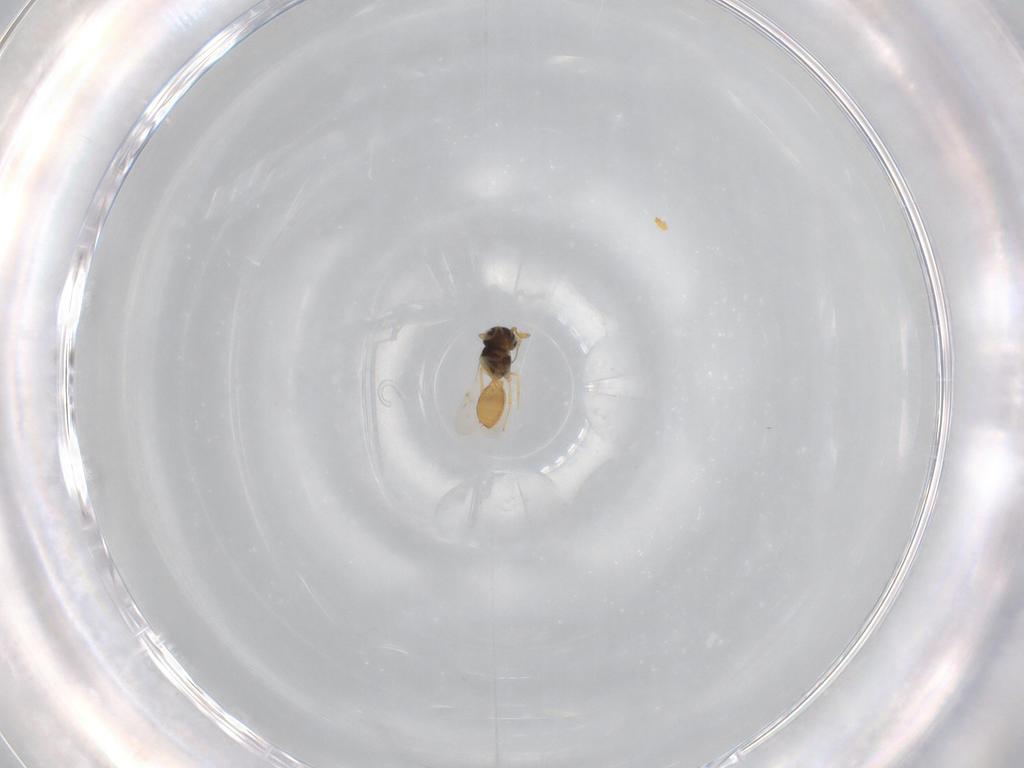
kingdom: Animalia
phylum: Arthropoda
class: Insecta
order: Hymenoptera
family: Scelionidae
